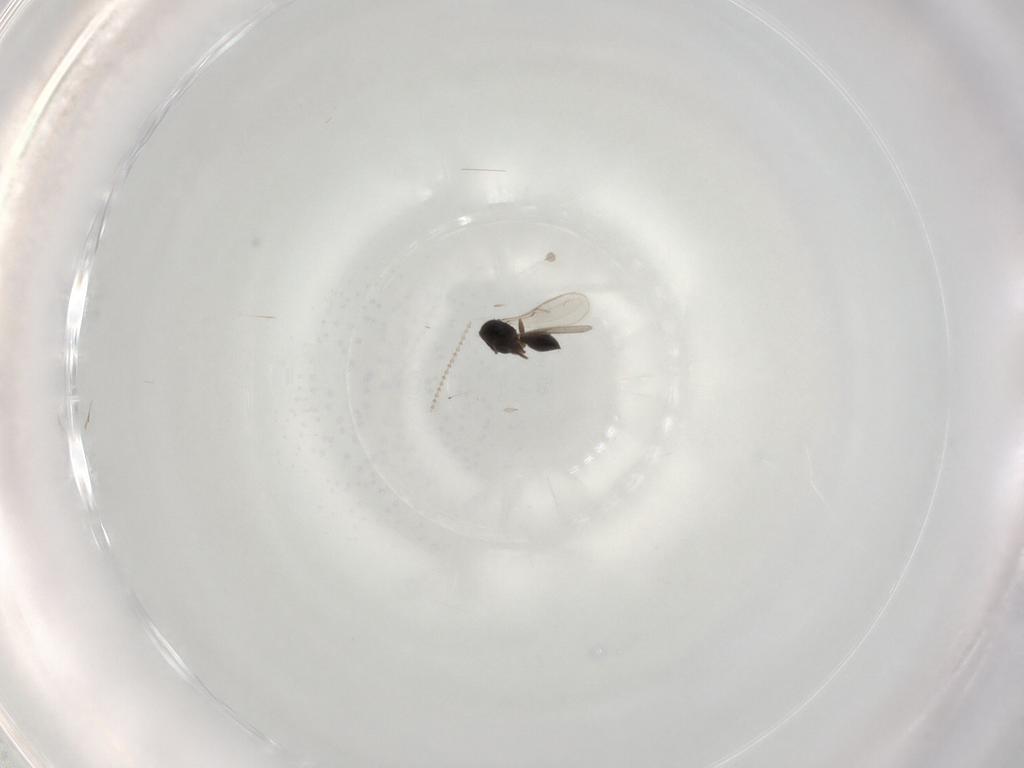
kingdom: Animalia
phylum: Arthropoda
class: Insecta
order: Hymenoptera
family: Scelionidae
